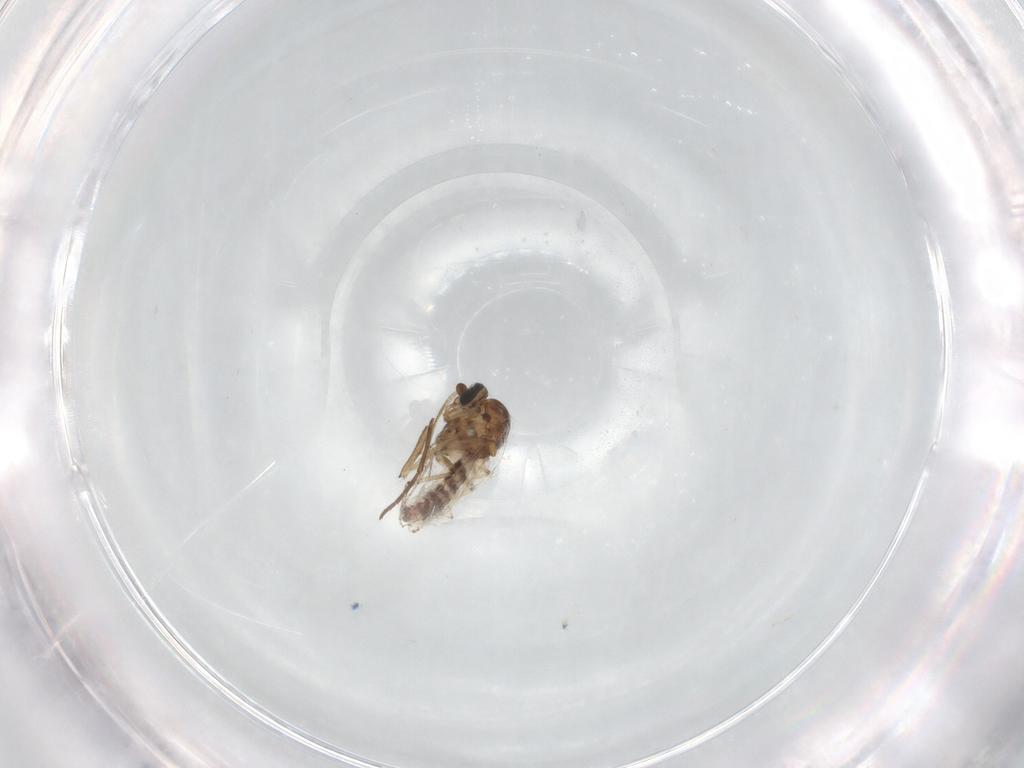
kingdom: Animalia
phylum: Arthropoda
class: Insecta
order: Diptera
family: Ceratopogonidae
